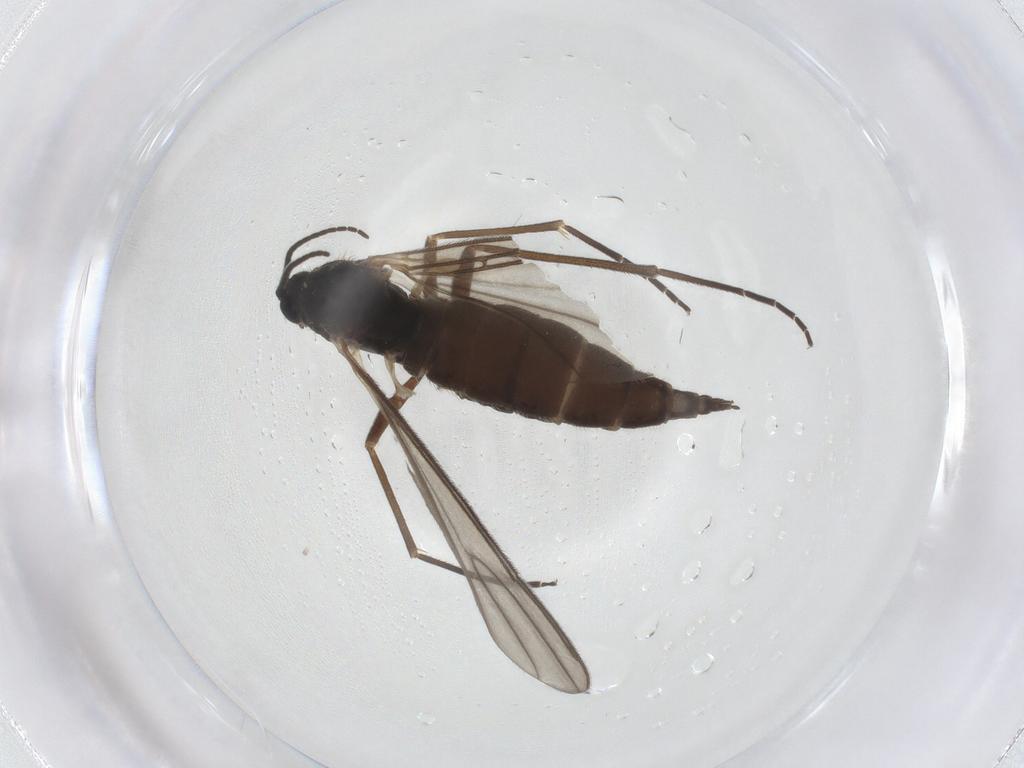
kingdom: Animalia
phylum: Arthropoda
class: Insecta
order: Diptera
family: Sciaridae
